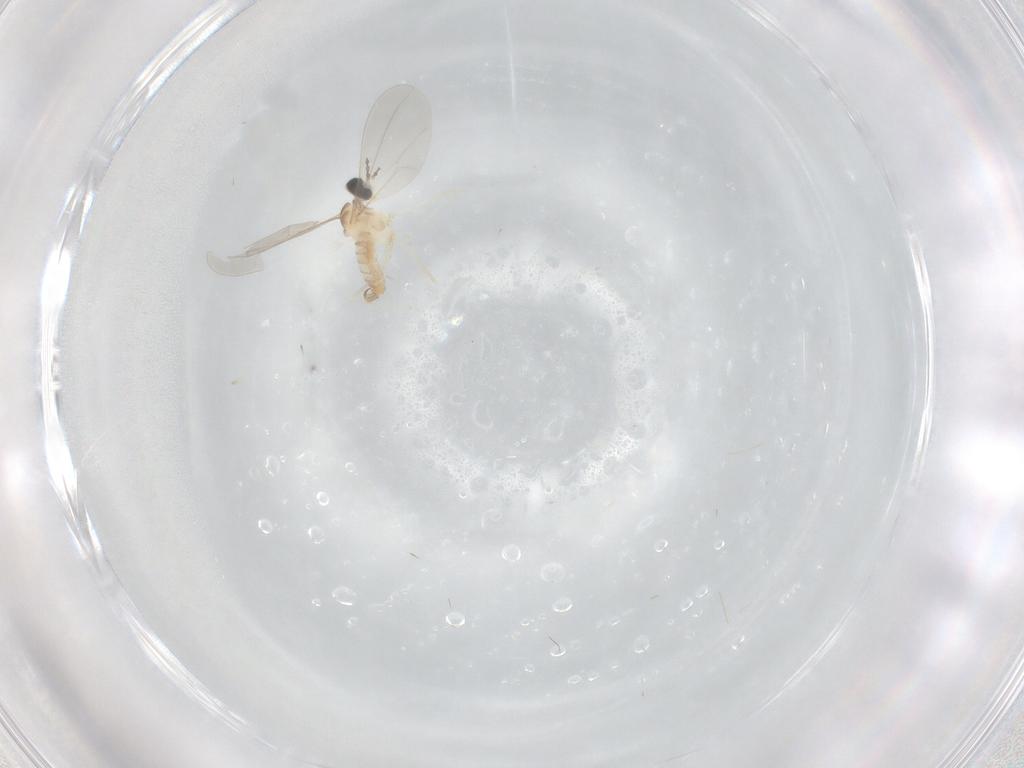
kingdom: Animalia
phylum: Arthropoda
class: Insecta
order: Diptera
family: Cecidomyiidae
